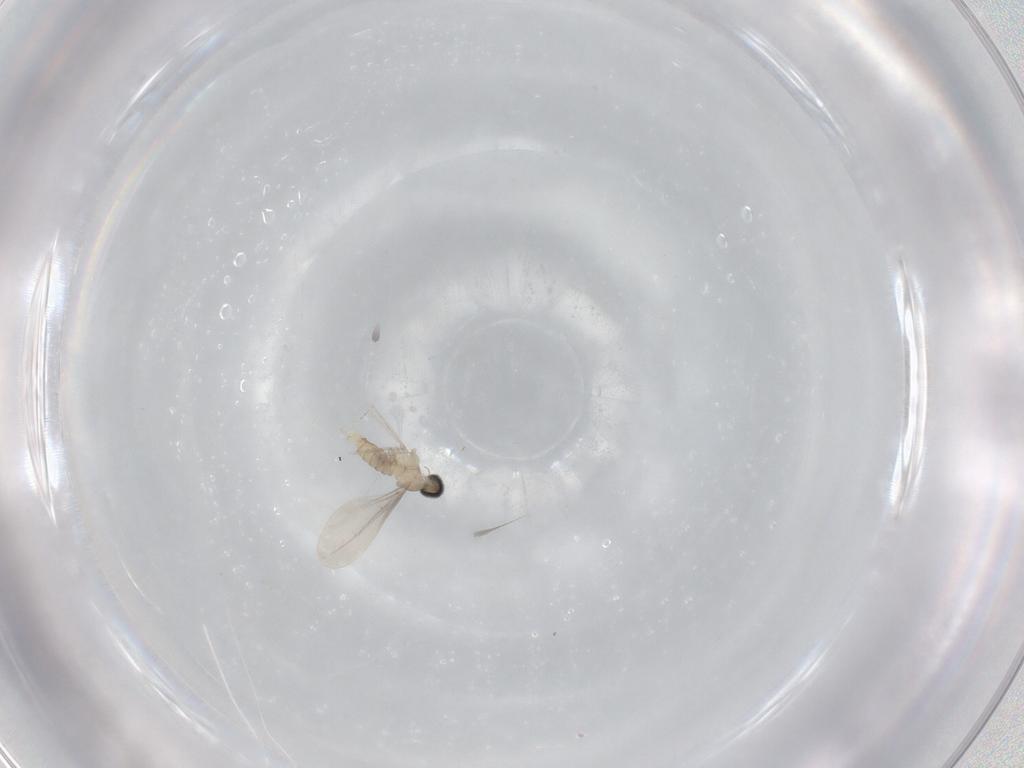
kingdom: Animalia
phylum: Arthropoda
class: Insecta
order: Diptera
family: Cecidomyiidae
